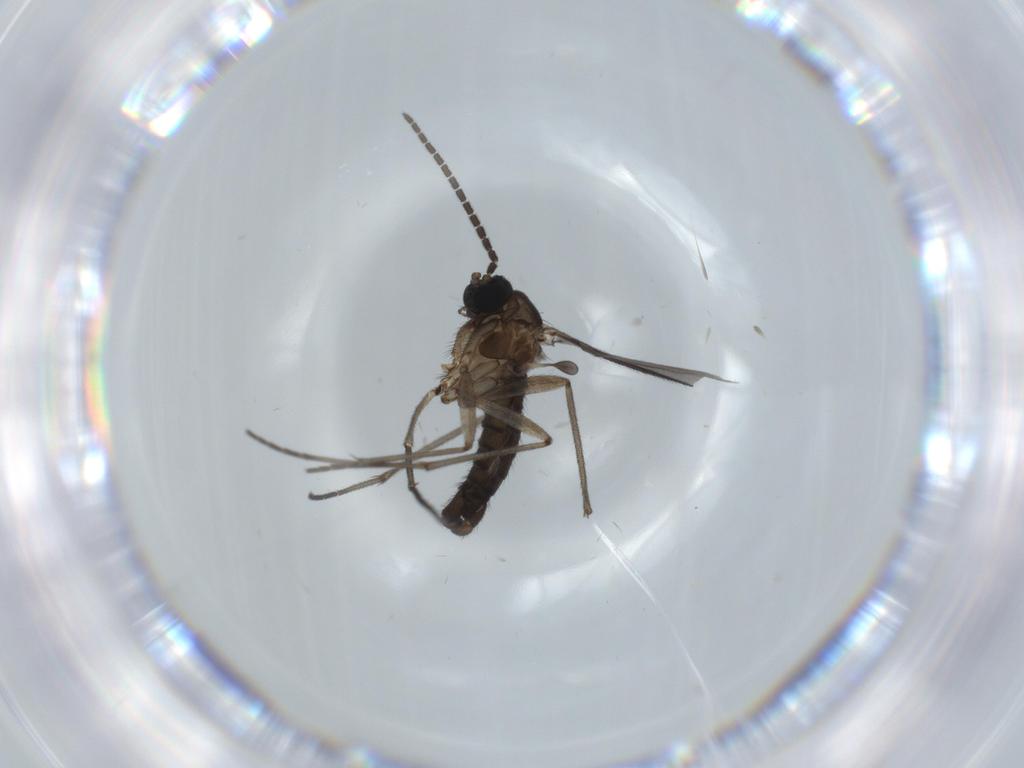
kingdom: Animalia
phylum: Arthropoda
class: Insecta
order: Diptera
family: Sciaridae
